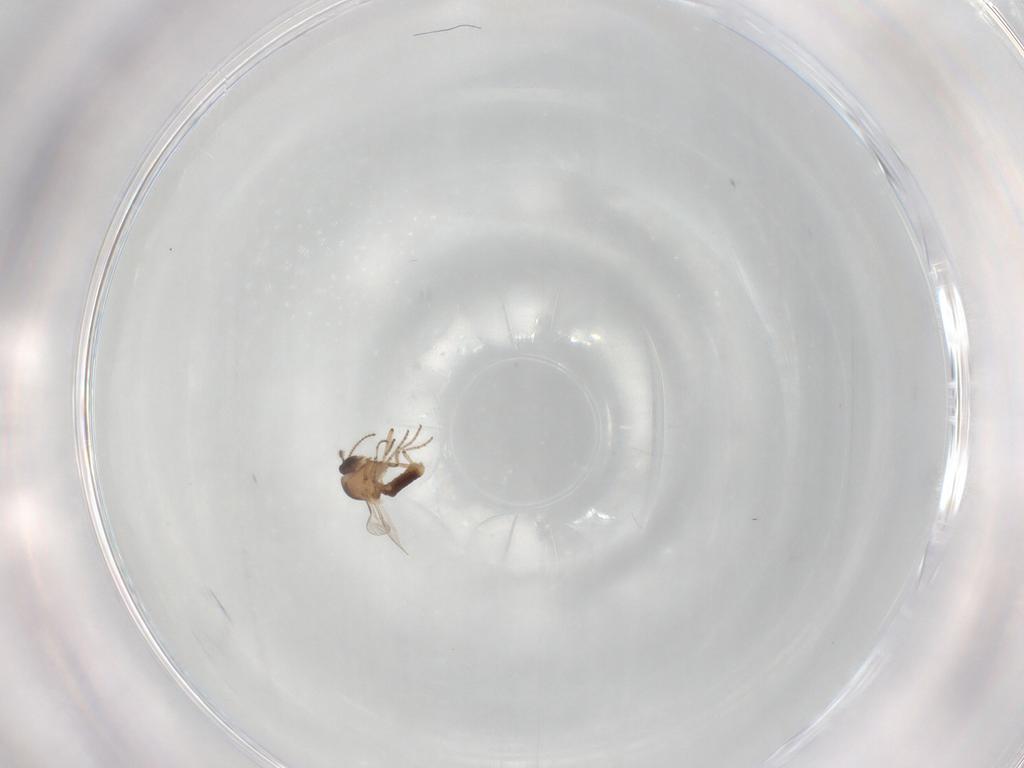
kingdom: Animalia
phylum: Arthropoda
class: Insecta
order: Diptera
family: Ceratopogonidae
